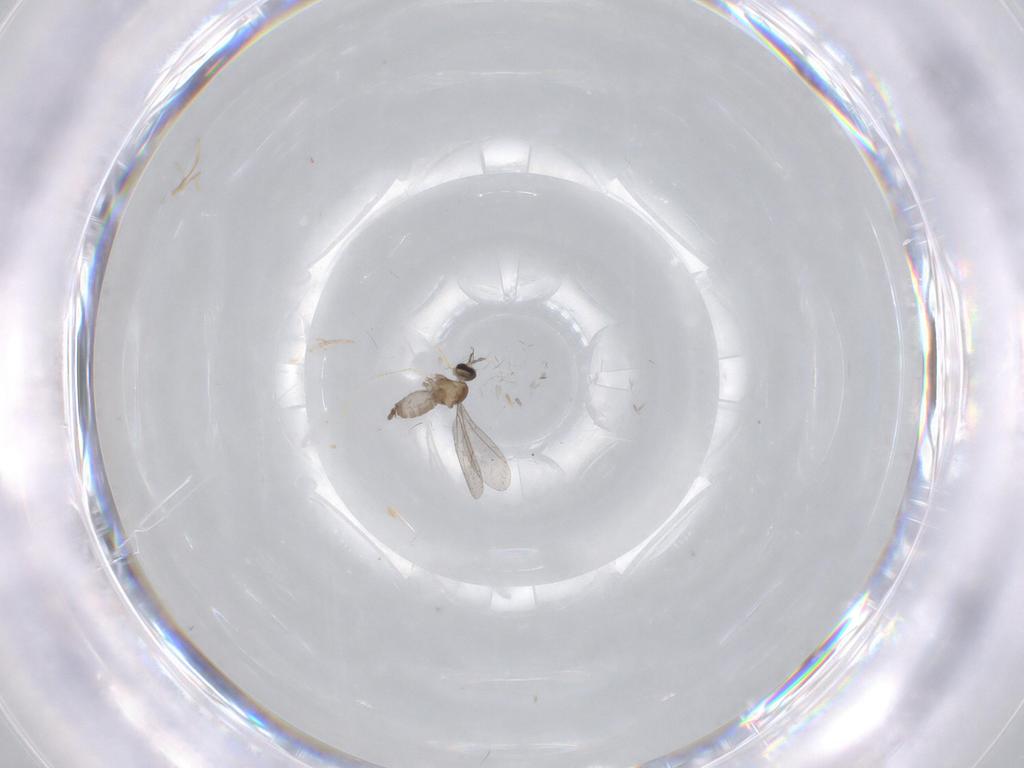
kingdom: Animalia
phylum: Arthropoda
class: Insecta
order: Diptera
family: Cecidomyiidae
